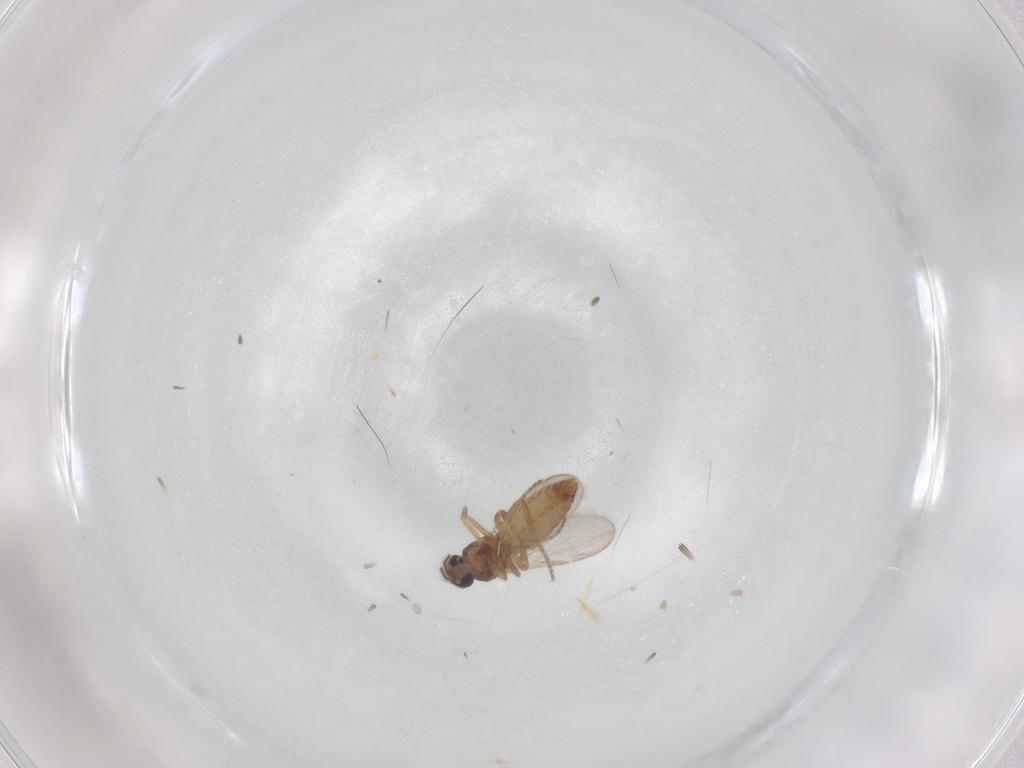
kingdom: Animalia
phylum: Arthropoda
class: Insecta
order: Diptera
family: Ceratopogonidae
